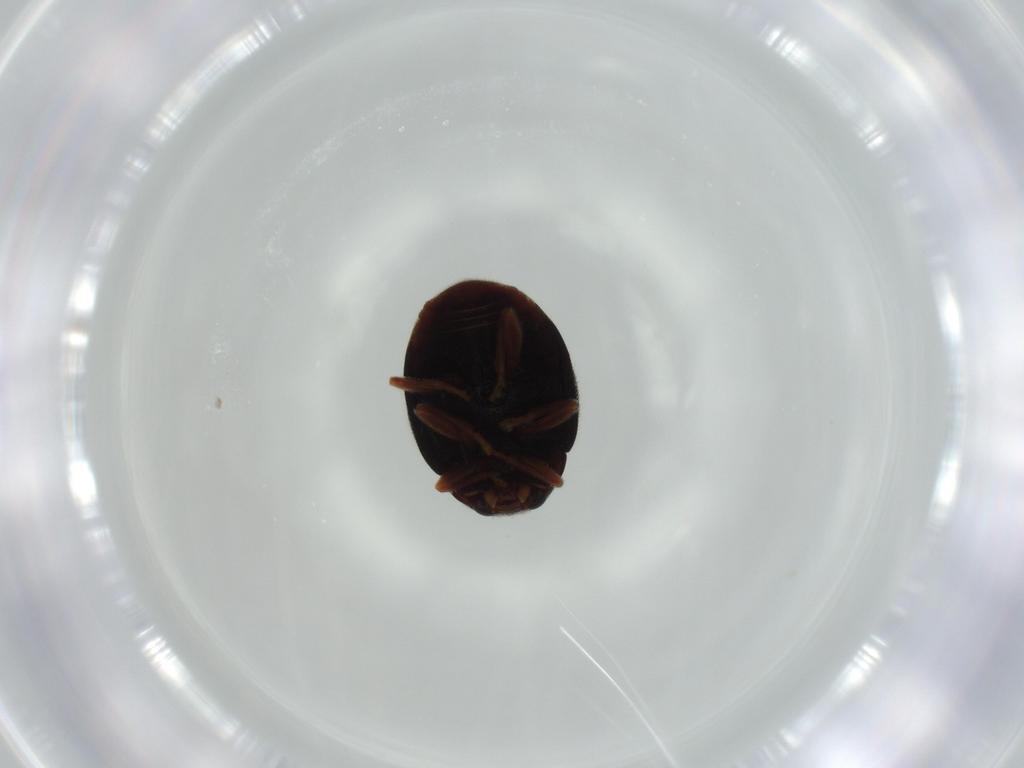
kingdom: Animalia
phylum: Arthropoda
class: Insecta
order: Coleoptera
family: Coccinellidae
